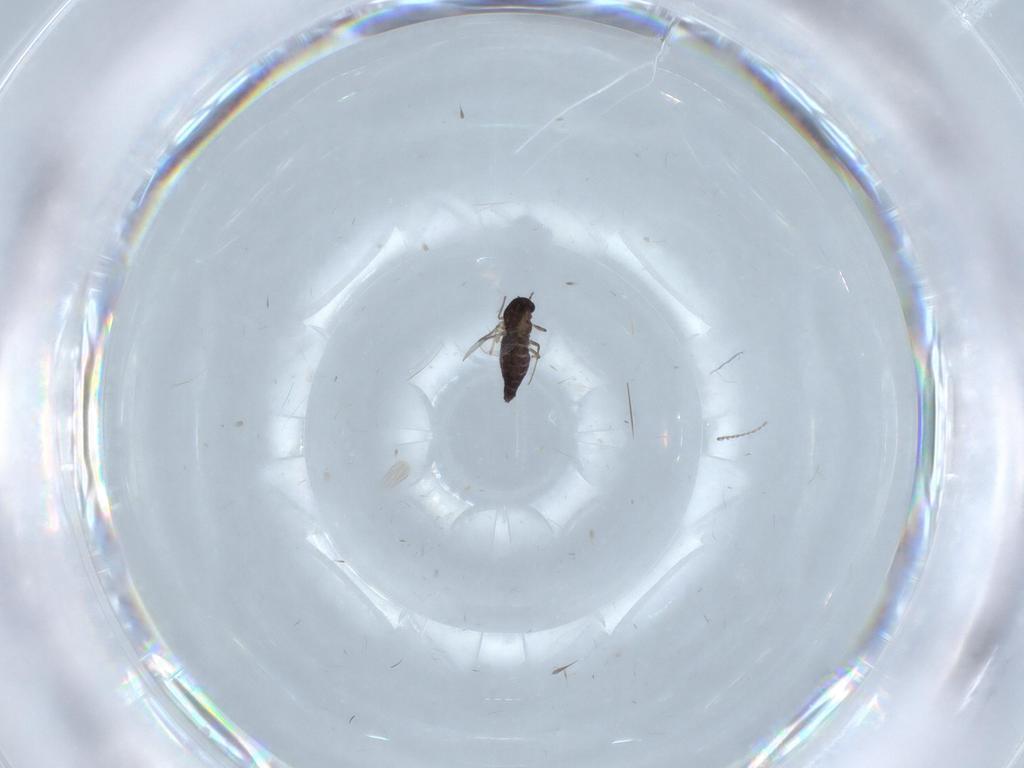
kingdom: Animalia
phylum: Arthropoda
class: Insecta
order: Diptera
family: Chironomidae
